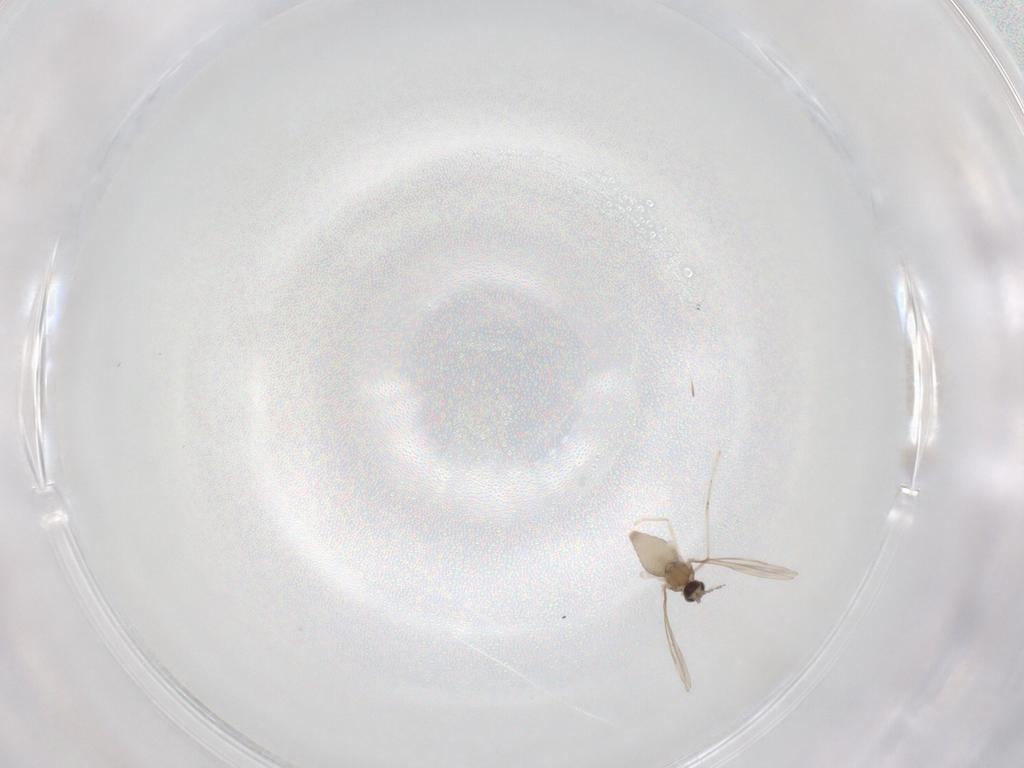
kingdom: Animalia
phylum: Arthropoda
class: Insecta
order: Diptera
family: Cecidomyiidae
